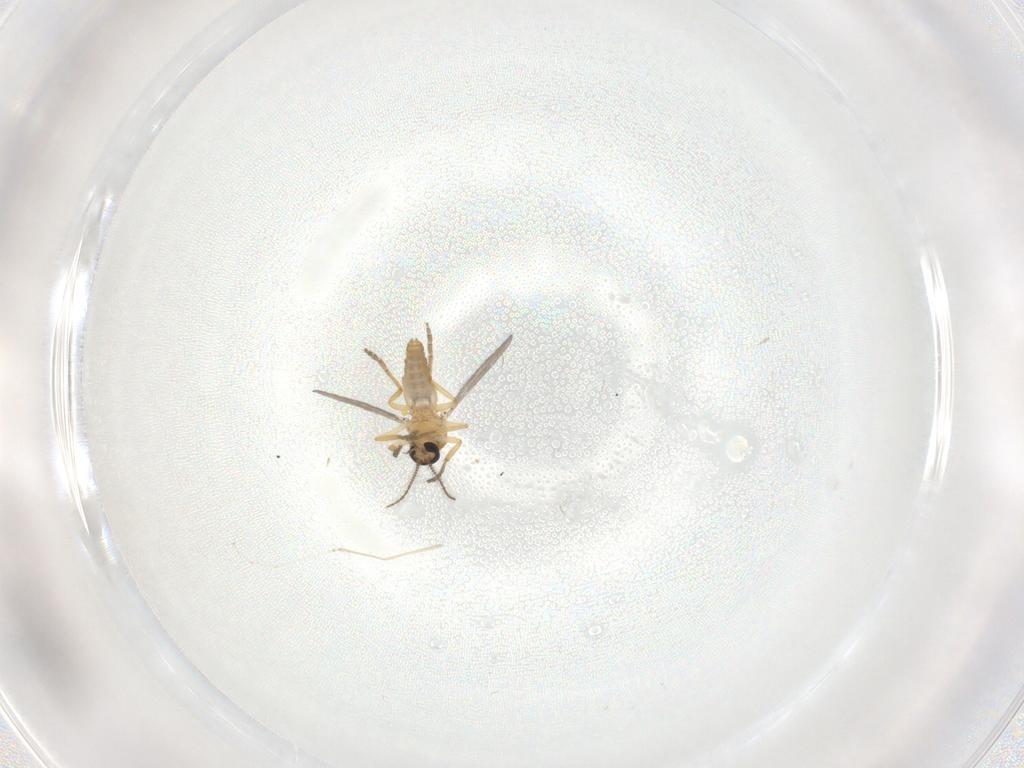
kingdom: Animalia
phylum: Arthropoda
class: Insecta
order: Diptera
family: Ceratopogonidae
